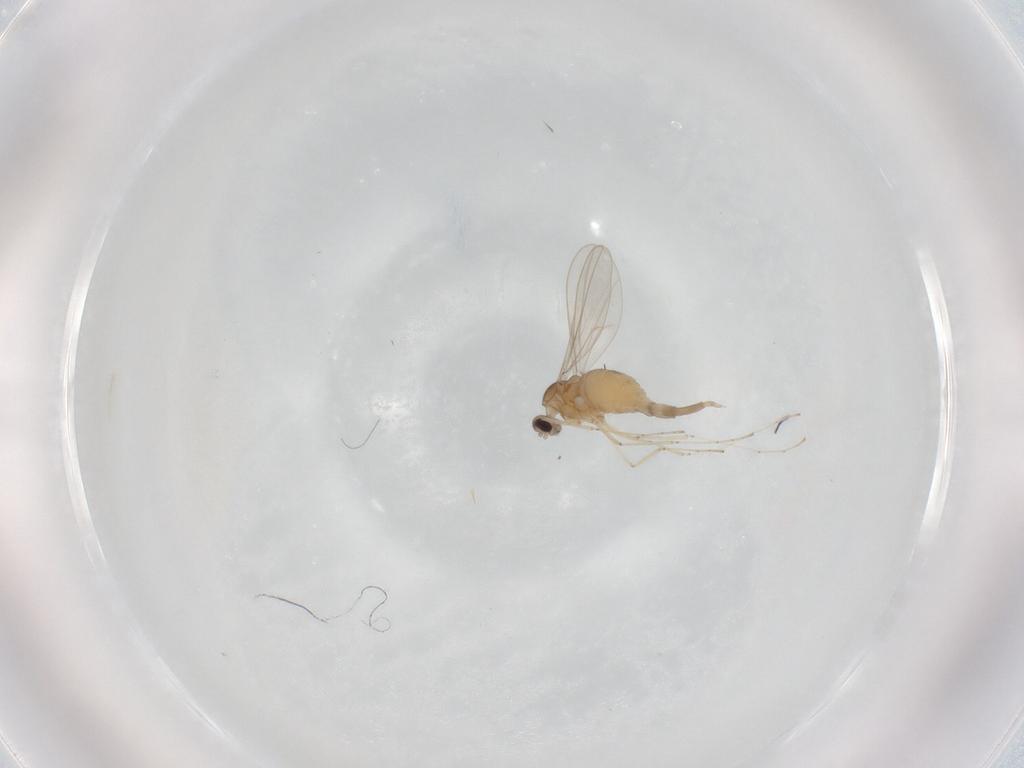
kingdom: Animalia
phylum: Arthropoda
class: Insecta
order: Diptera
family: Cecidomyiidae
